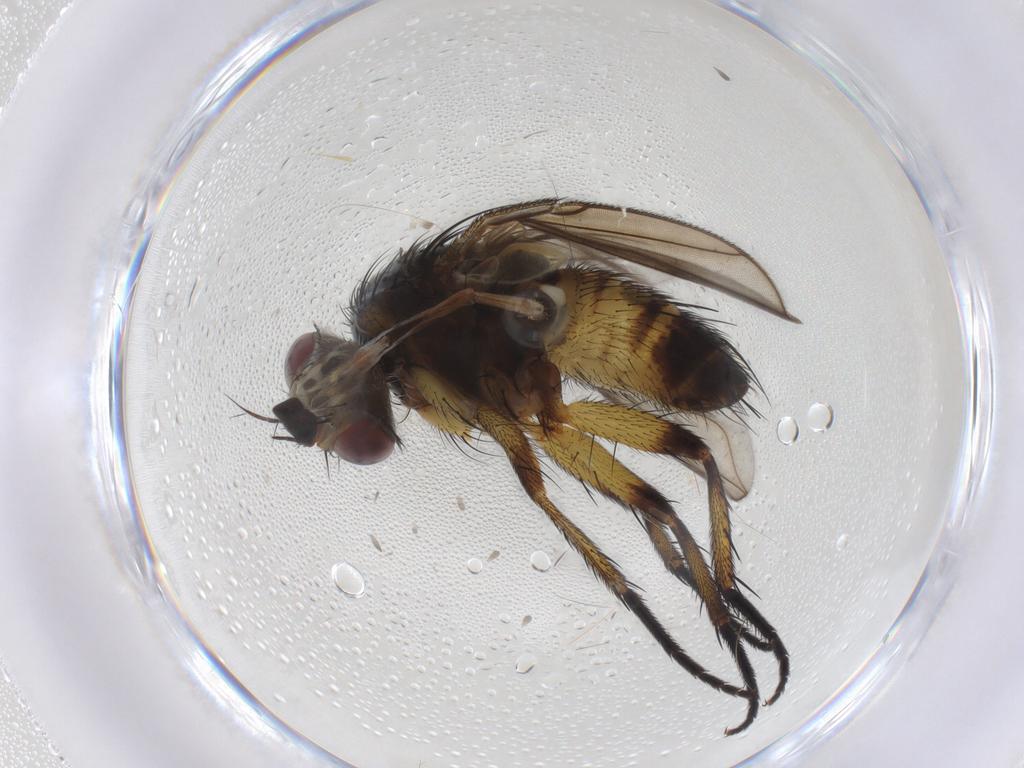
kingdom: Animalia
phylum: Arthropoda
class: Insecta
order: Diptera
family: Tachinidae
